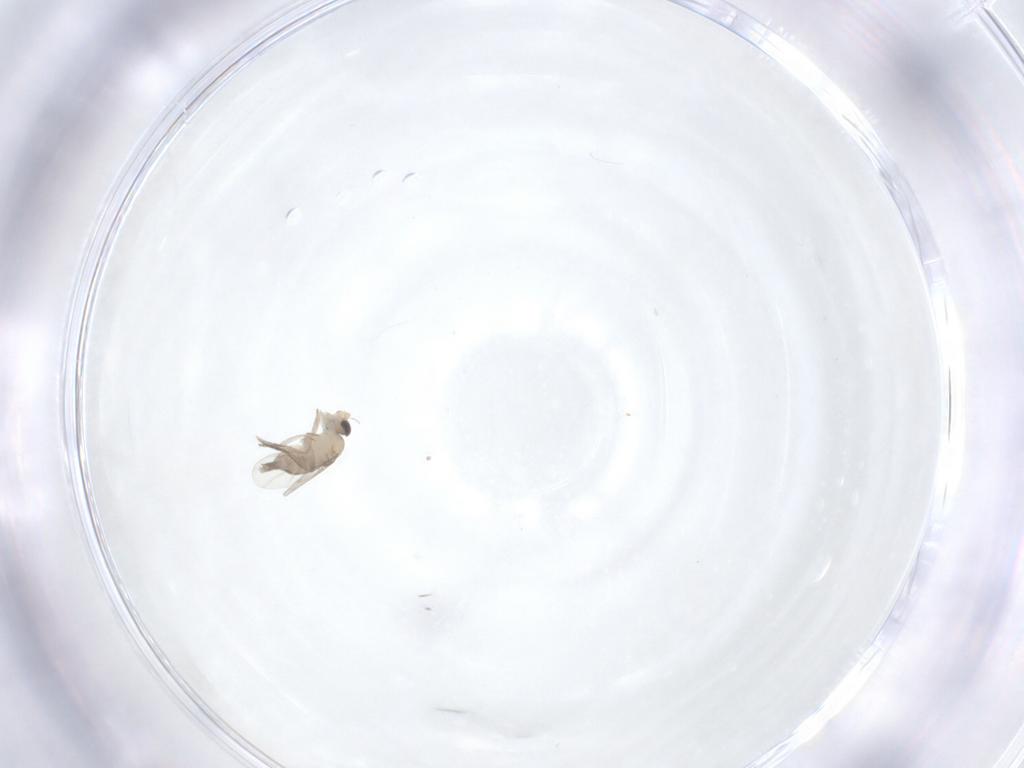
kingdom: Animalia
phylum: Arthropoda
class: Insecta
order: Diptera
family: Phoridae
